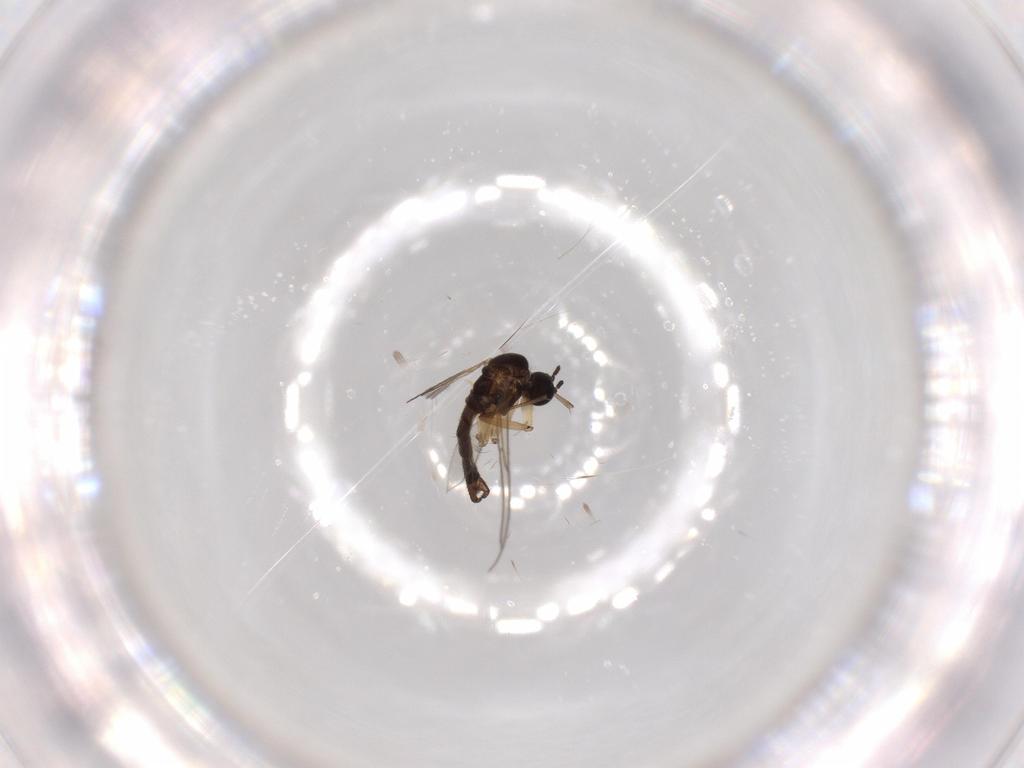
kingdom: Animalia
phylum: Arthropoda
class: Insecta
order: Diptera
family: Sciaridae
